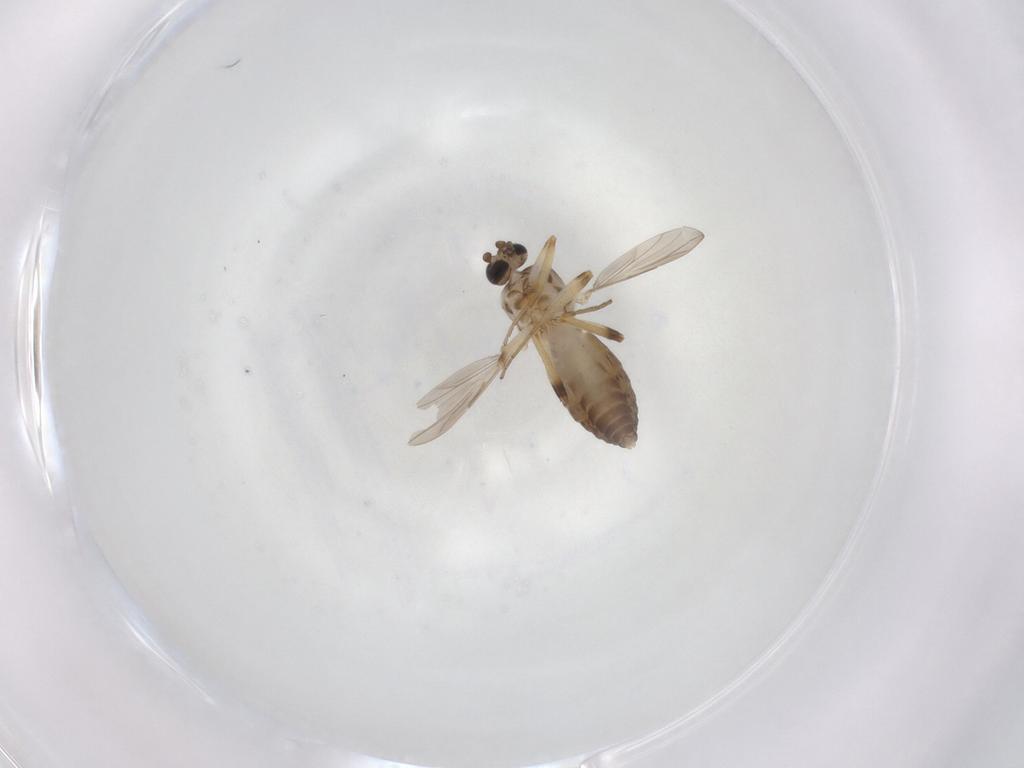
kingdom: Animalia
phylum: Arthropoda
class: Insecta
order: Diptera
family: Ceratopogonidae
